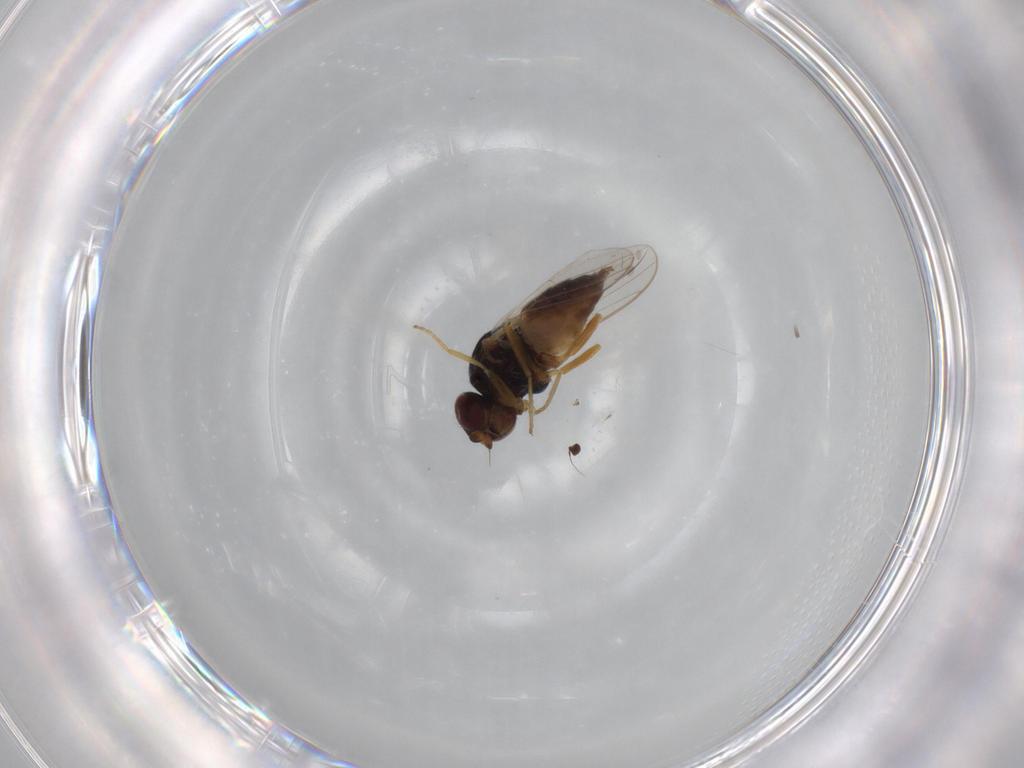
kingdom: Animalia
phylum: Arthropoda
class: Insecta
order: Diptera
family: Chloropidae
